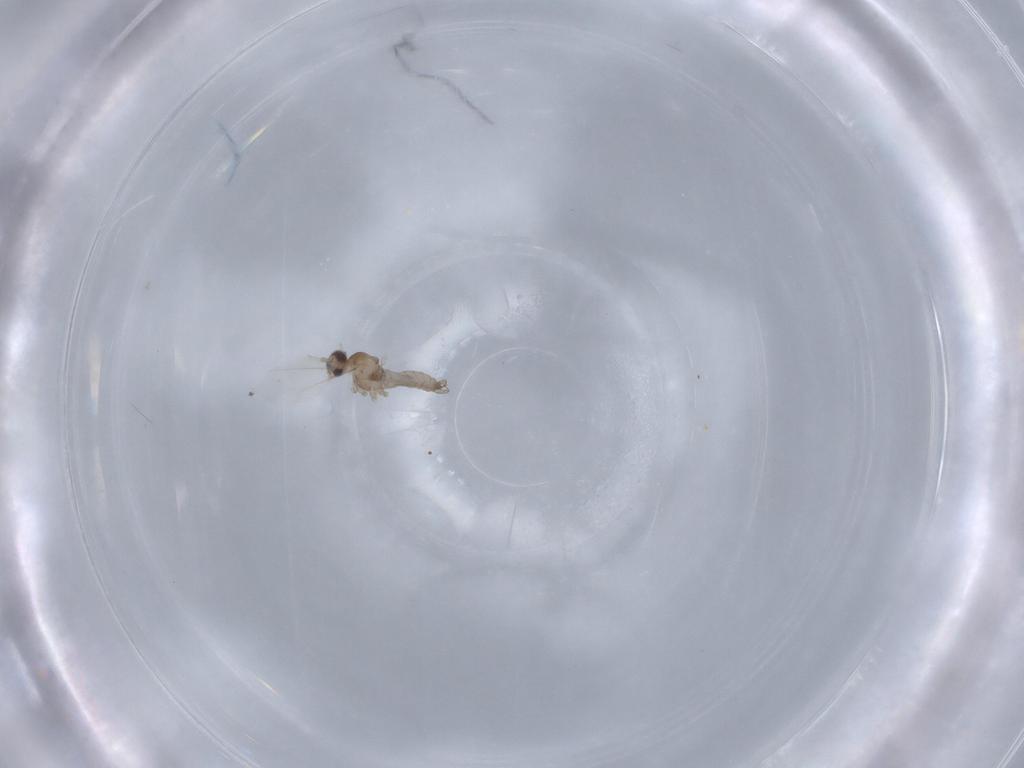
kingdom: Animalia
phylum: Arthropoda
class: Insecta
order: Diptera
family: Cecidomyiidae
